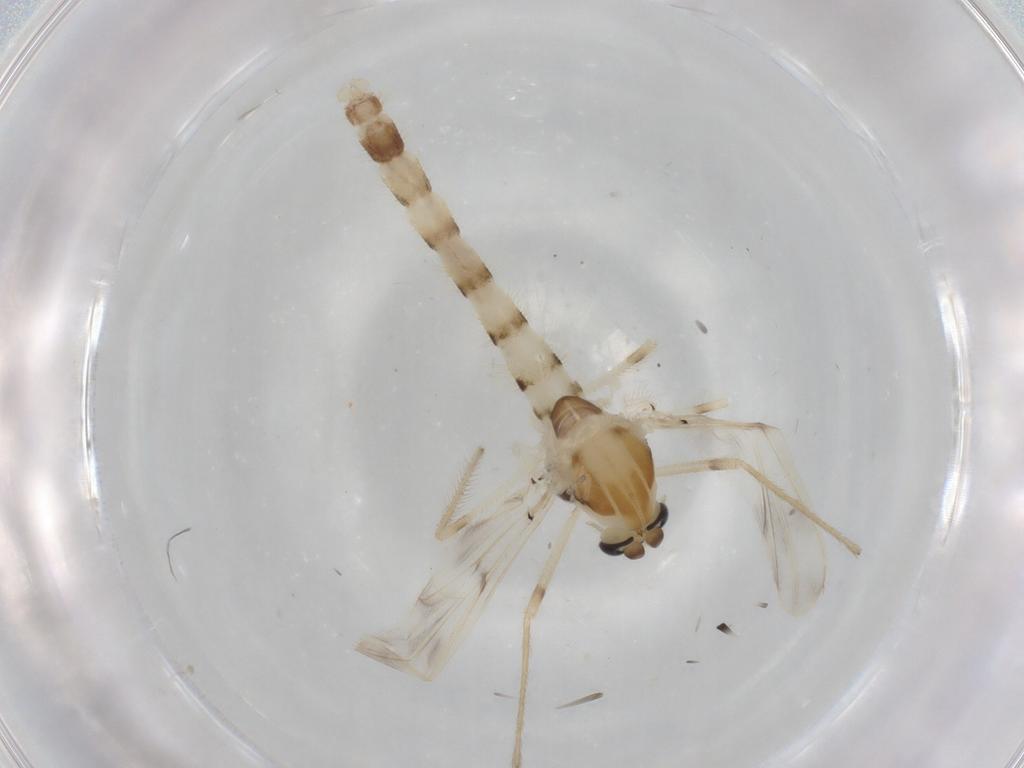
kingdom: Animalia
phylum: Arthropoda
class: Insecta
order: Diptera
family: Chironomidae
